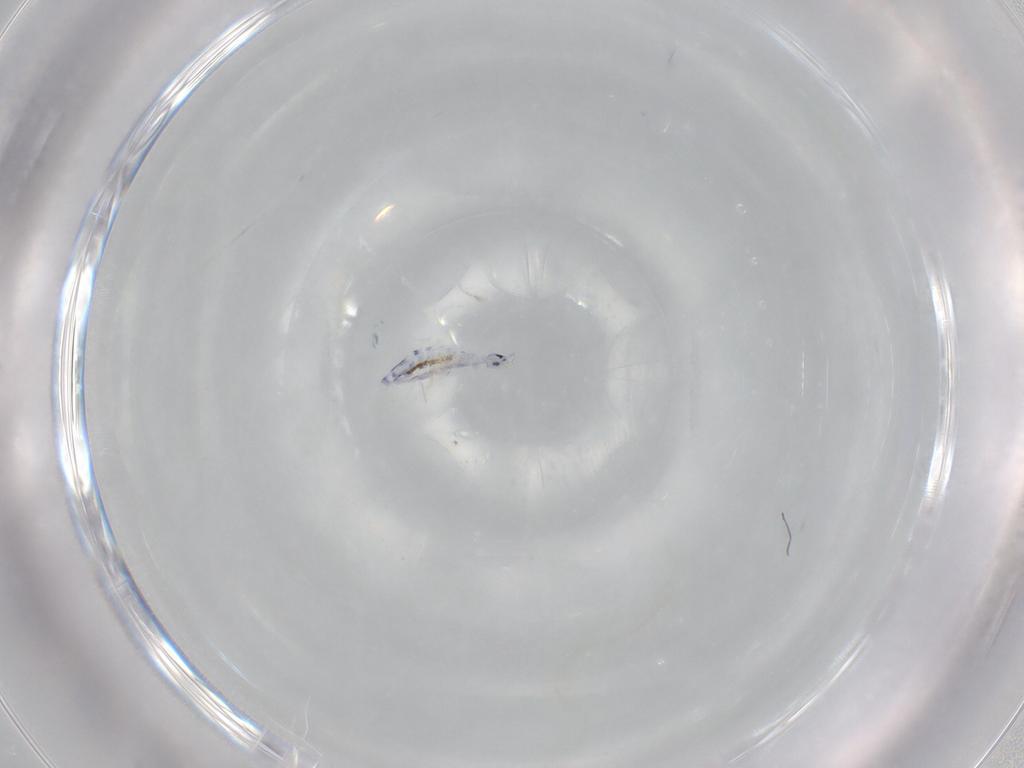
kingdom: Animalia
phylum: Arthropoda
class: Collembola
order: Entomobryomorpha
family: Entomobryidae
